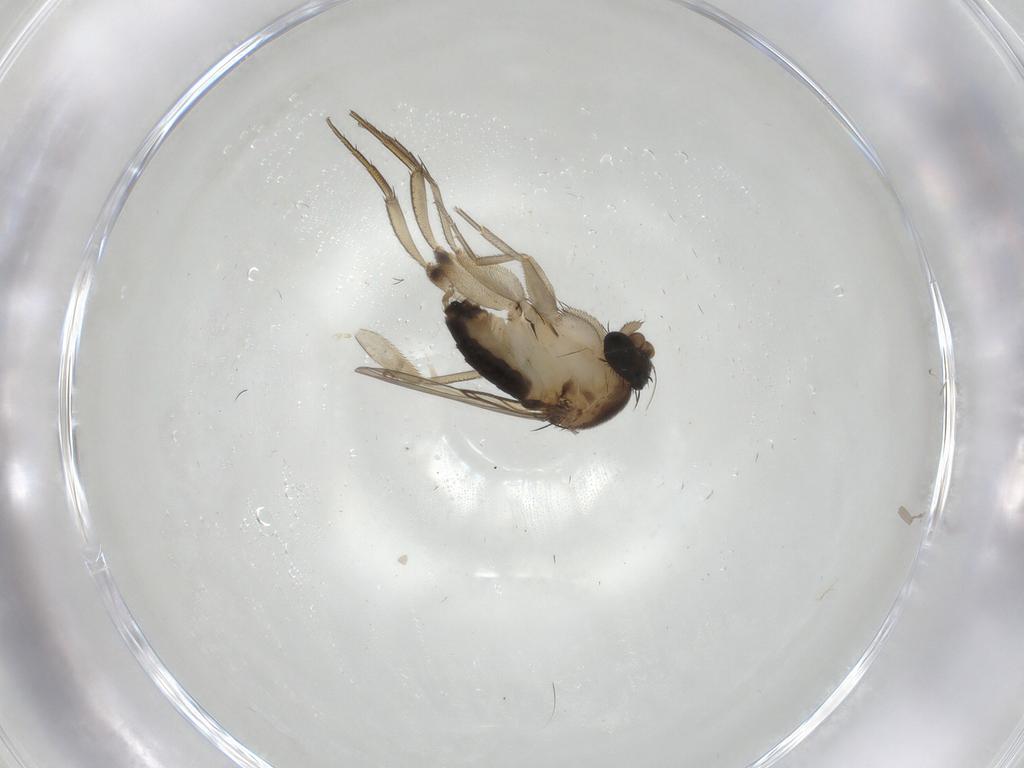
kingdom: Animalia
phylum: Arthropoda
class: Insecta
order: Diptera
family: Phoridae
